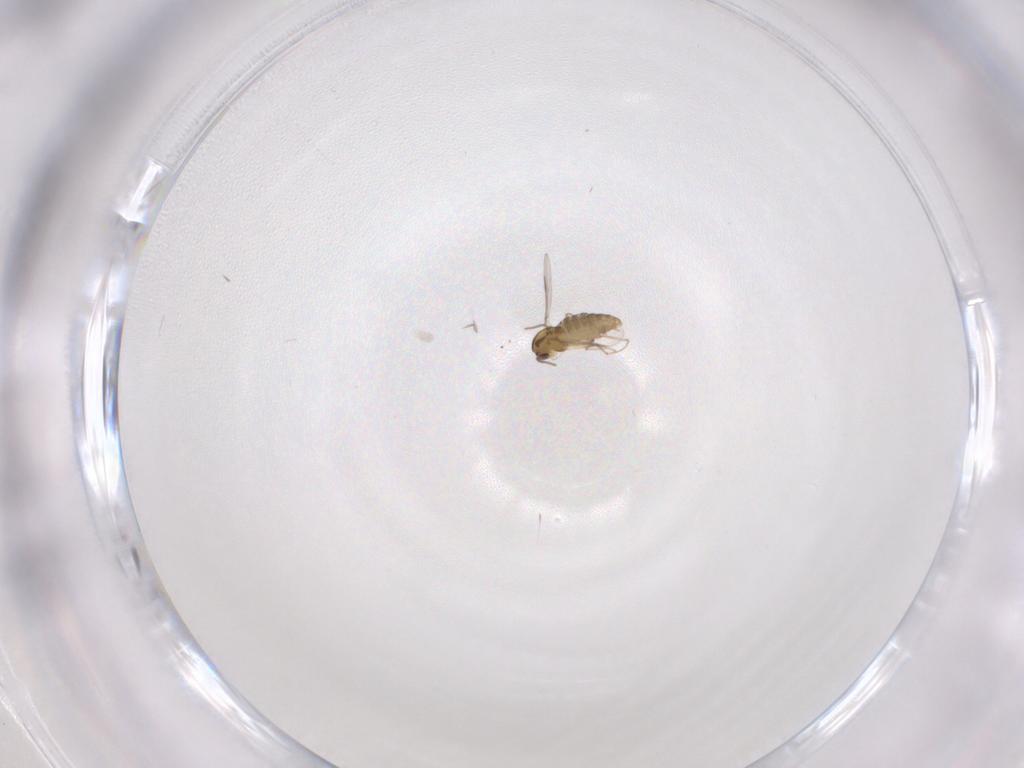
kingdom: Animalia
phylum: Arthropoda
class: Insecta
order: Diptera
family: Chironomidae
